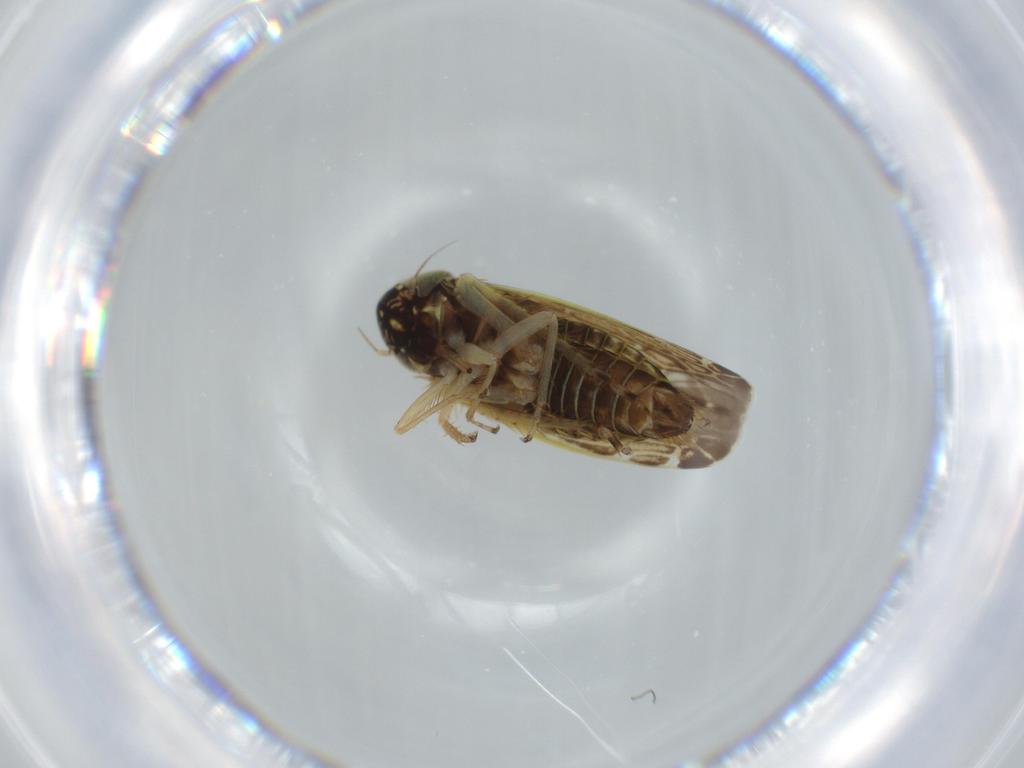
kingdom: Animalia
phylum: Arthropoda
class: Insecta
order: Hemiptera
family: Cicadellidae
